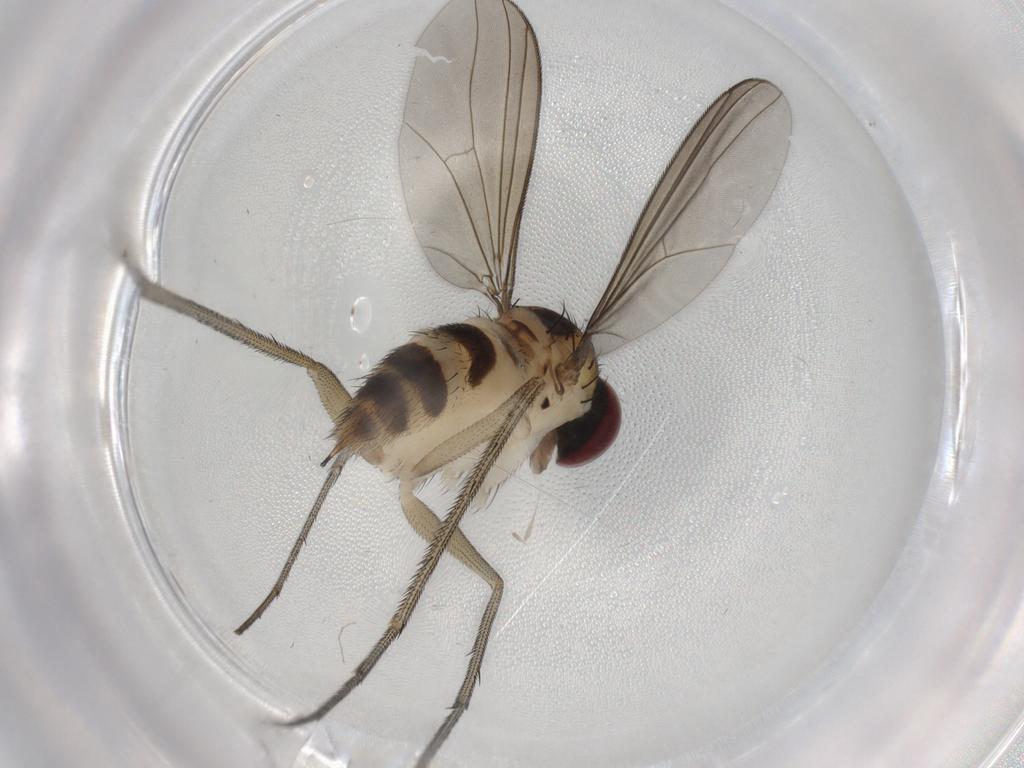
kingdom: Animalia
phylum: Arthropoda
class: Insecta
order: Diptera
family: Dolichopodidae
